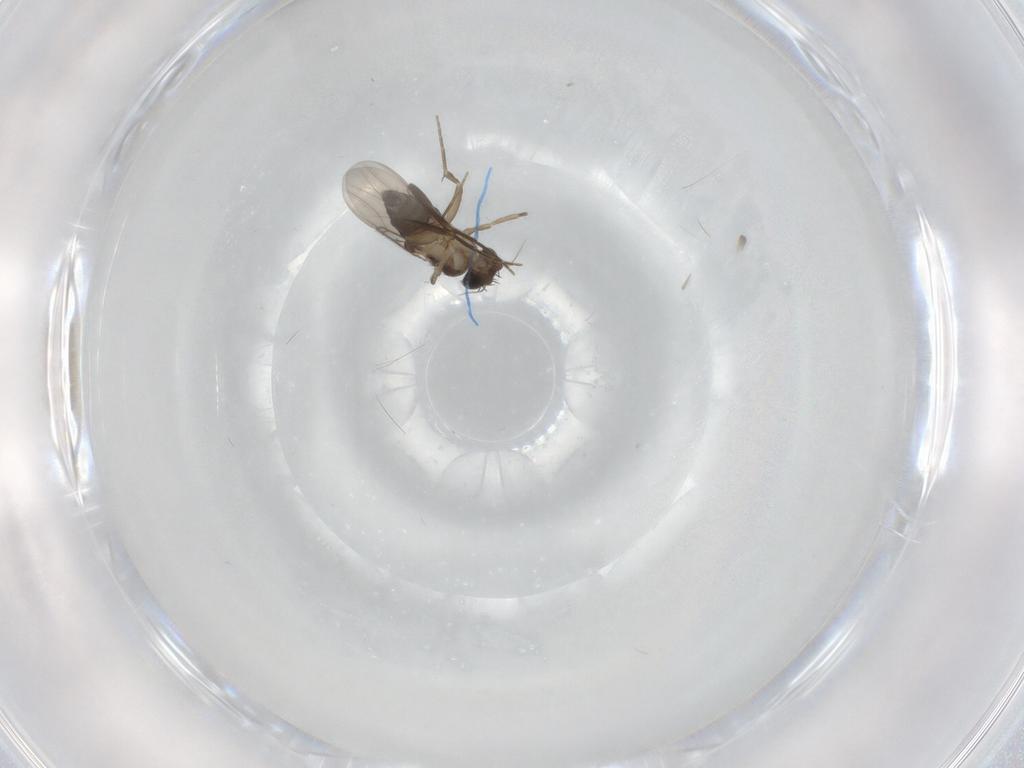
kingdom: Animalia
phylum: Arthropoda
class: Insecta
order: Diptera
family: Phoridae
